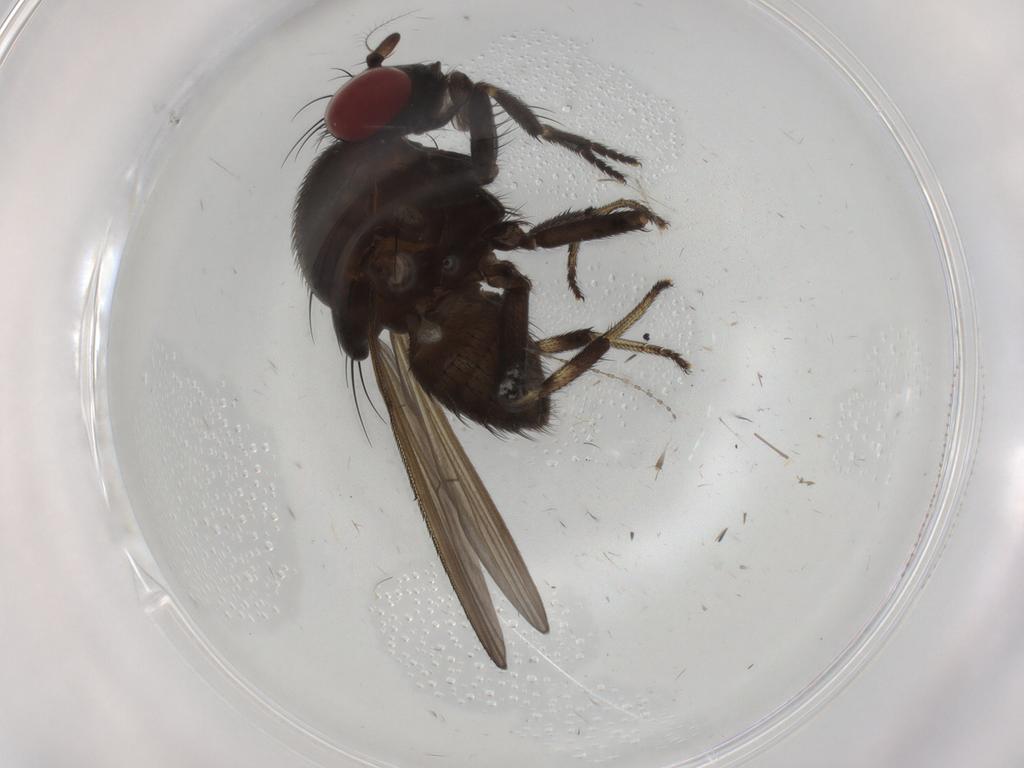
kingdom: Animalia
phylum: Arthropoda
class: Insecta
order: Diptera
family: Lauxaniidae
